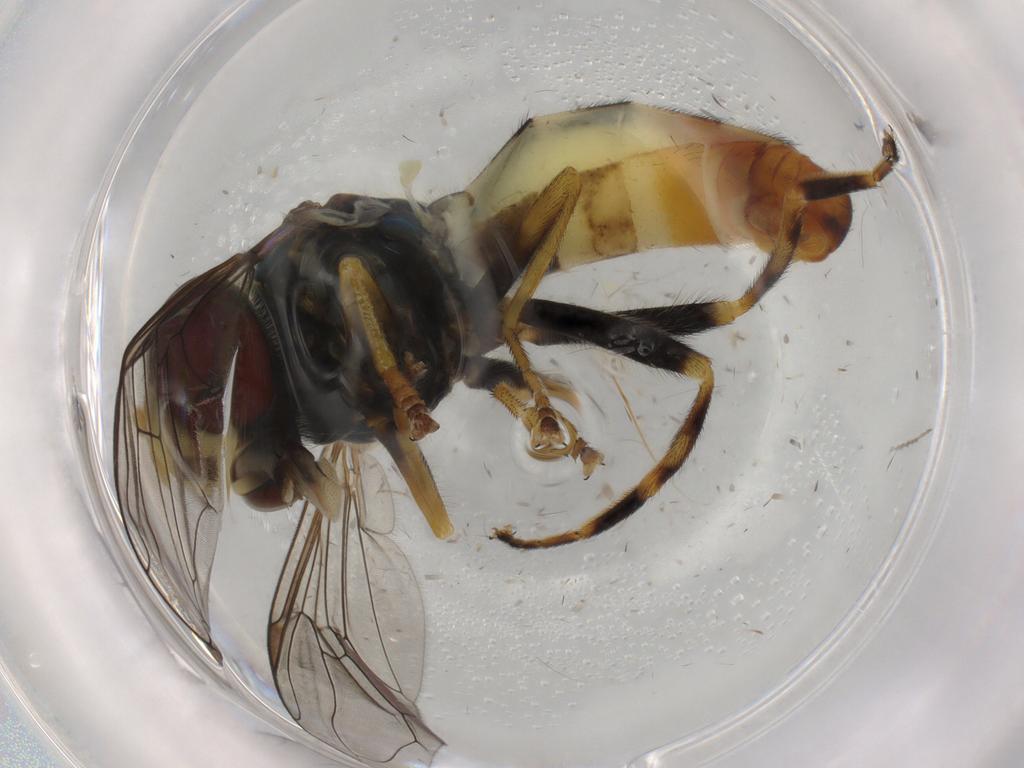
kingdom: Animalia
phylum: Arthropoda
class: Insecta
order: Diptera
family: Syrphidae
